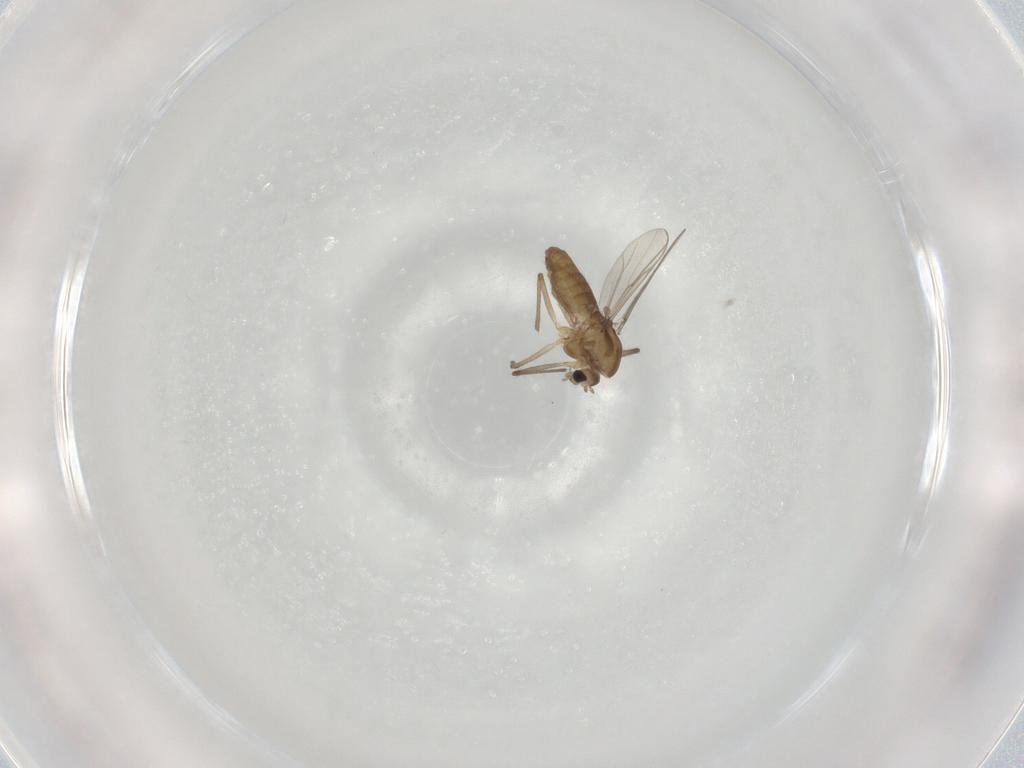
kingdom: Animalia
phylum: Arthropoda
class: Insecta
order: Diptera
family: Chironomidae
